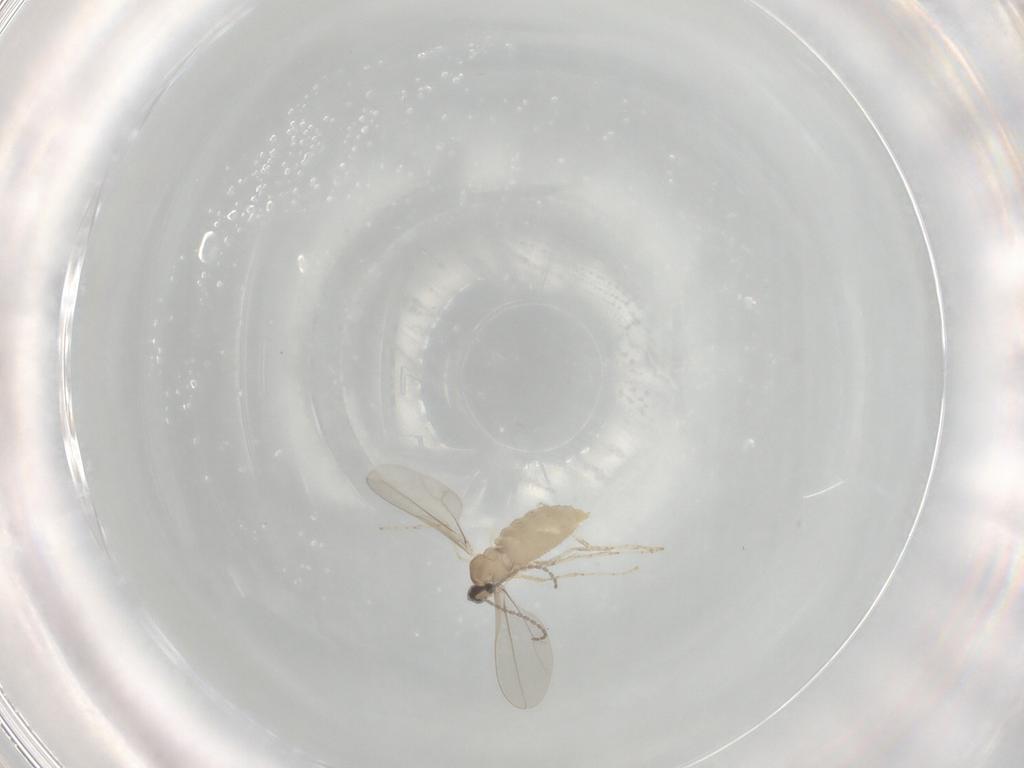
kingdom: Animalia
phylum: Arthropoda
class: Insecta
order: Diptera
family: Cecidomyiidae
